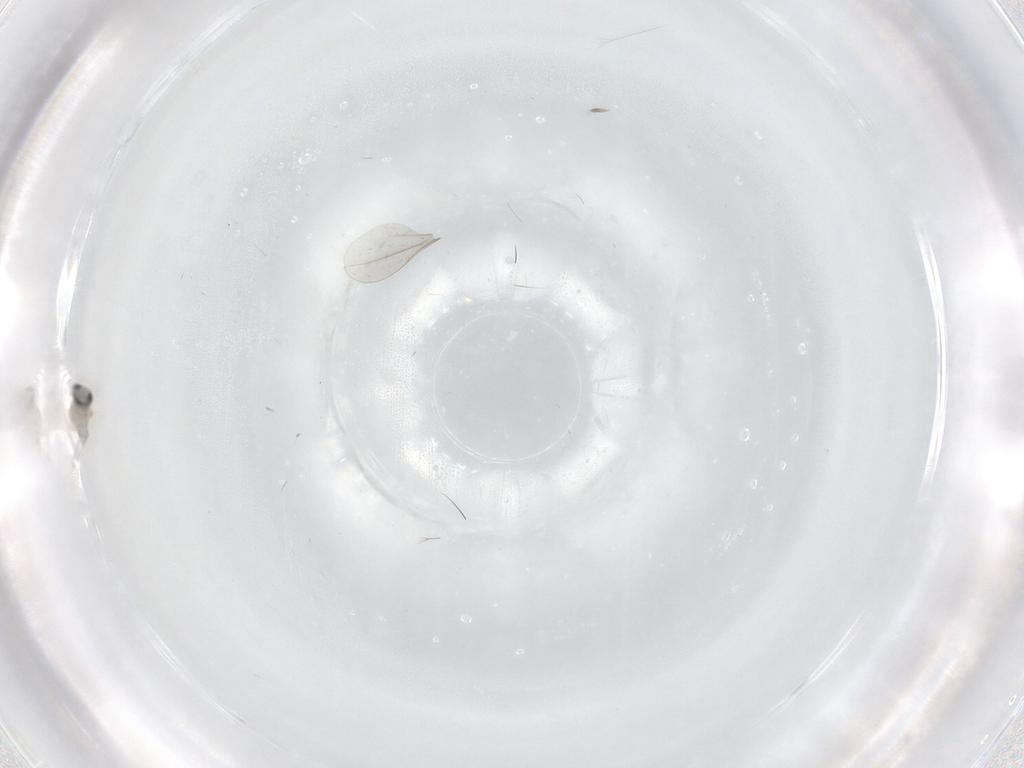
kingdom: Animalia
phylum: Arthropoda
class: Insecta
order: Diptera
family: Cecidomyiidae
